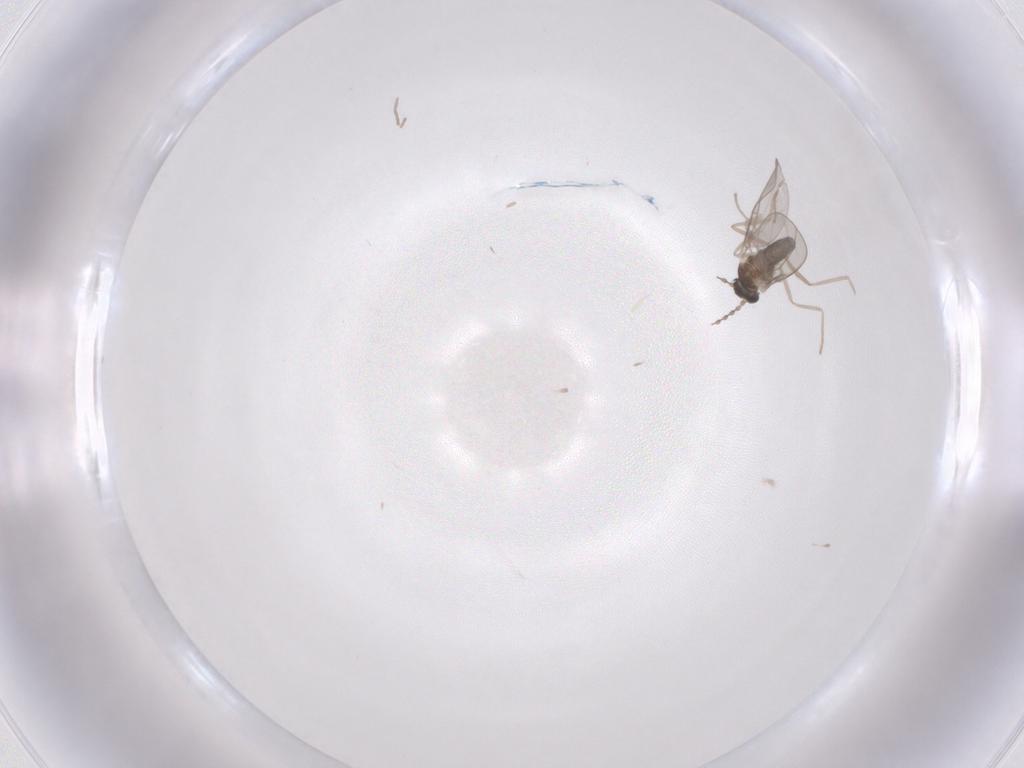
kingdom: Animalia
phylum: Arthropoda
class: Insecta
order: Diptera
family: Cecidomyiidae
